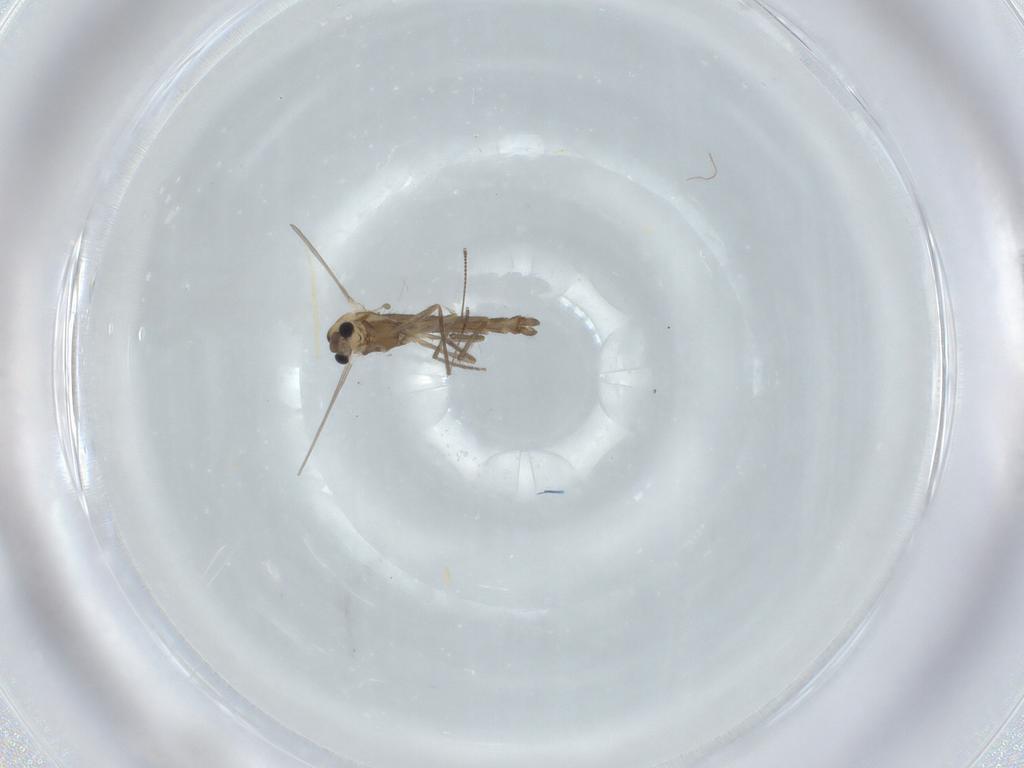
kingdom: Animalia
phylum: Arthropoda
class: Insecta
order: Diptera
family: Chironomidae
